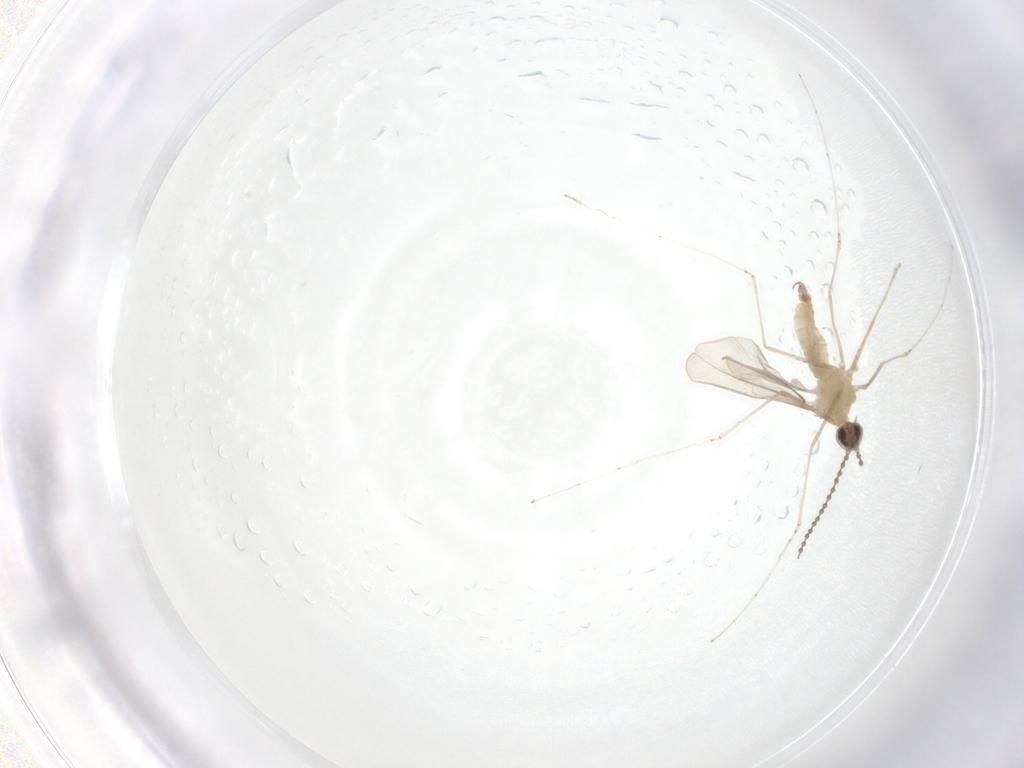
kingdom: Animalia
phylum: Arthropoda
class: Insecta
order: Diptera
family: Cecidomyiidae
